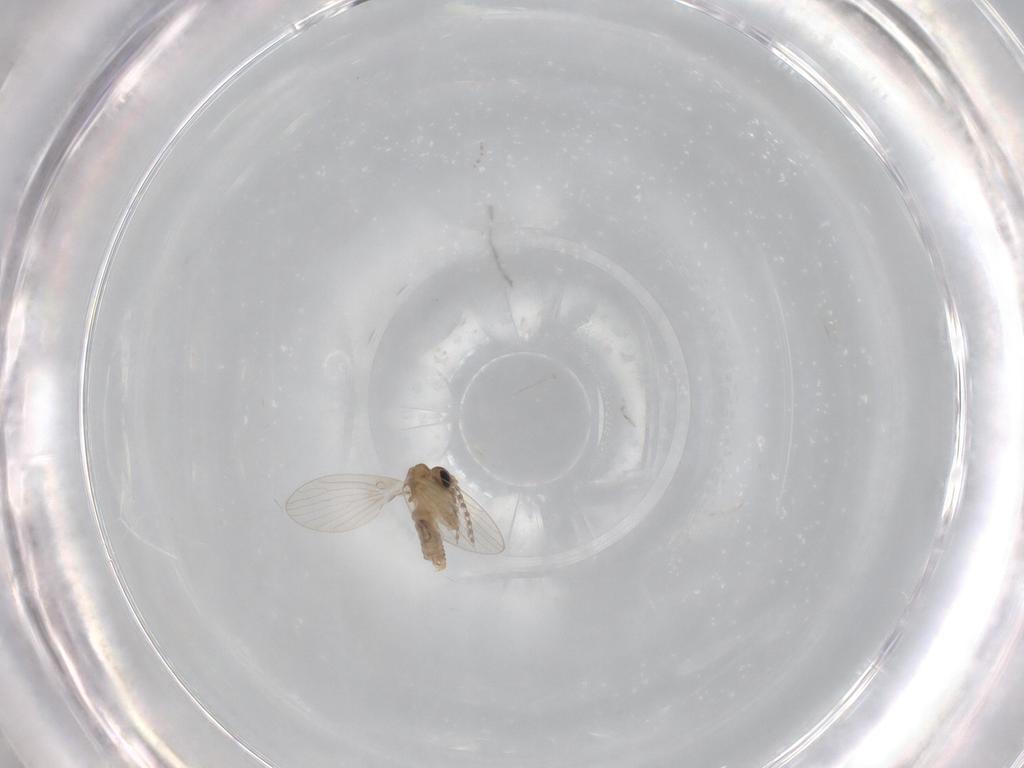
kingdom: Animalia
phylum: Arthropoda
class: Insecta
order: Diptera
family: Psychodidae
